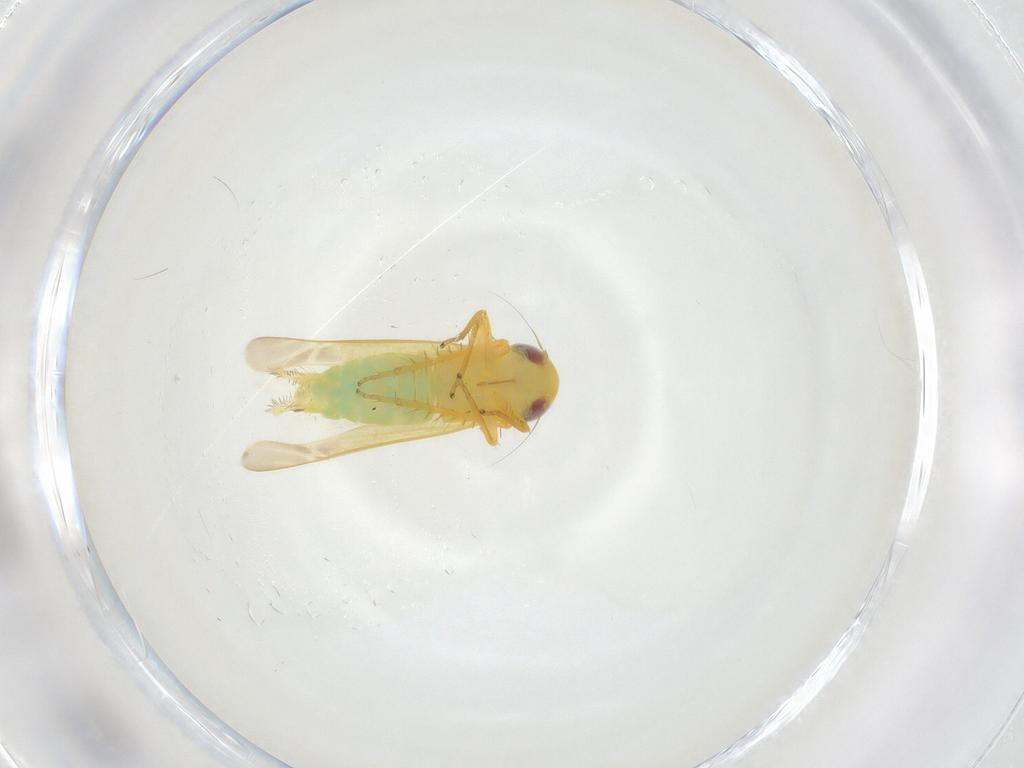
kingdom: Animalia
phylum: Arthropoda
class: Insecta
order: Hemiptera
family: Cicadellidae
